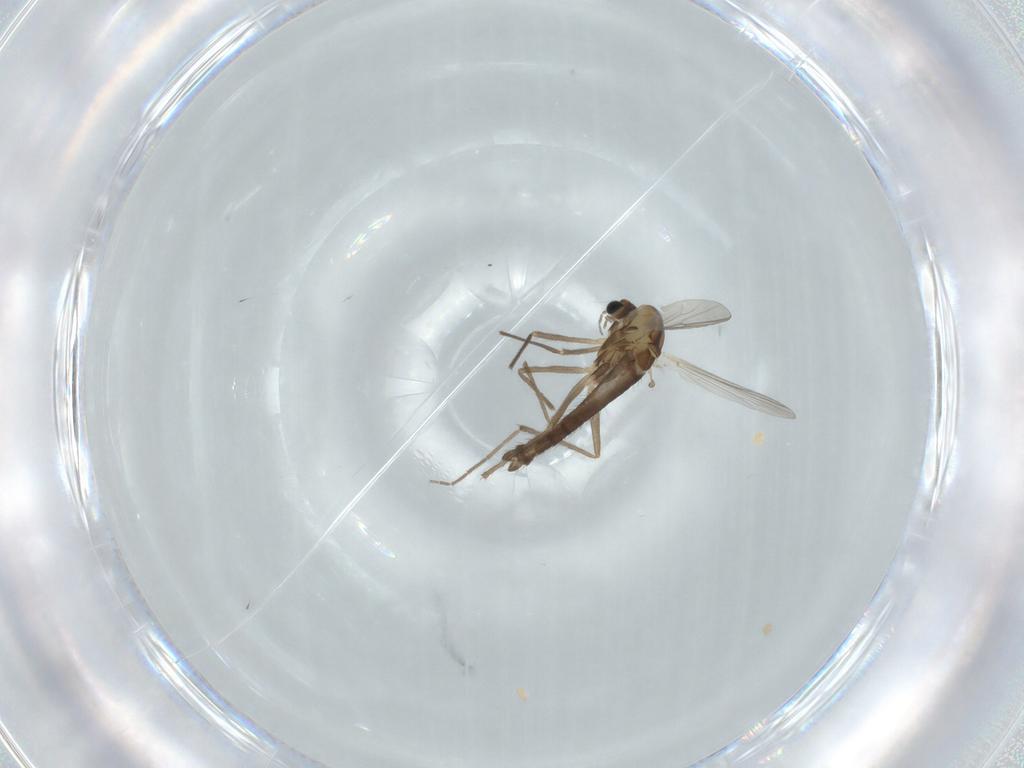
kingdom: Animalia
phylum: Arthropoda
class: Insecta
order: Diptera
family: Chironomidae
